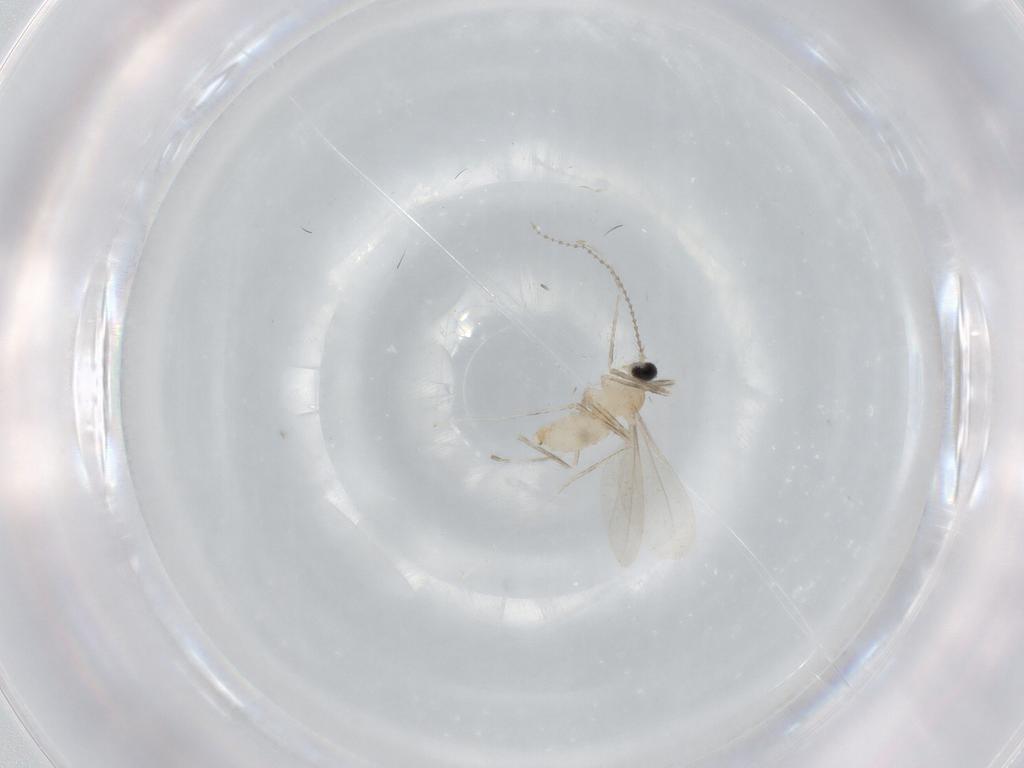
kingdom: Animalia
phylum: Arthropoda
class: Insecta
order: Diptera
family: Cecidomyiidae
